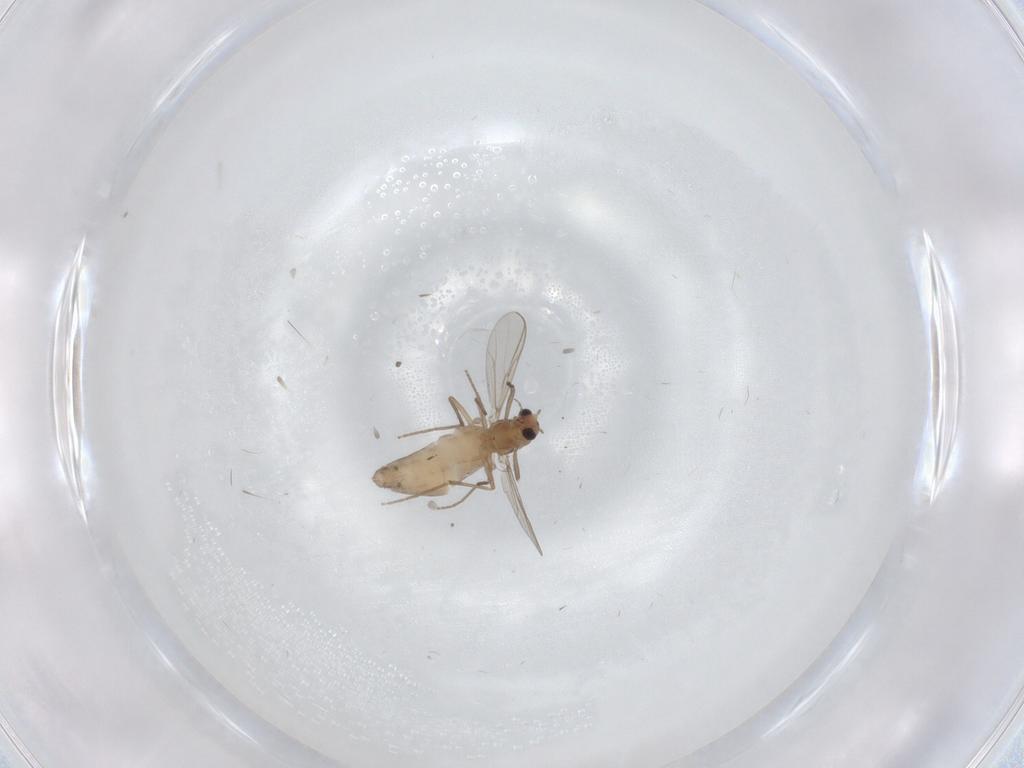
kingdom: Animalia
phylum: Arthropoda
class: Insecta
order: Diptera
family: Chironomidae
